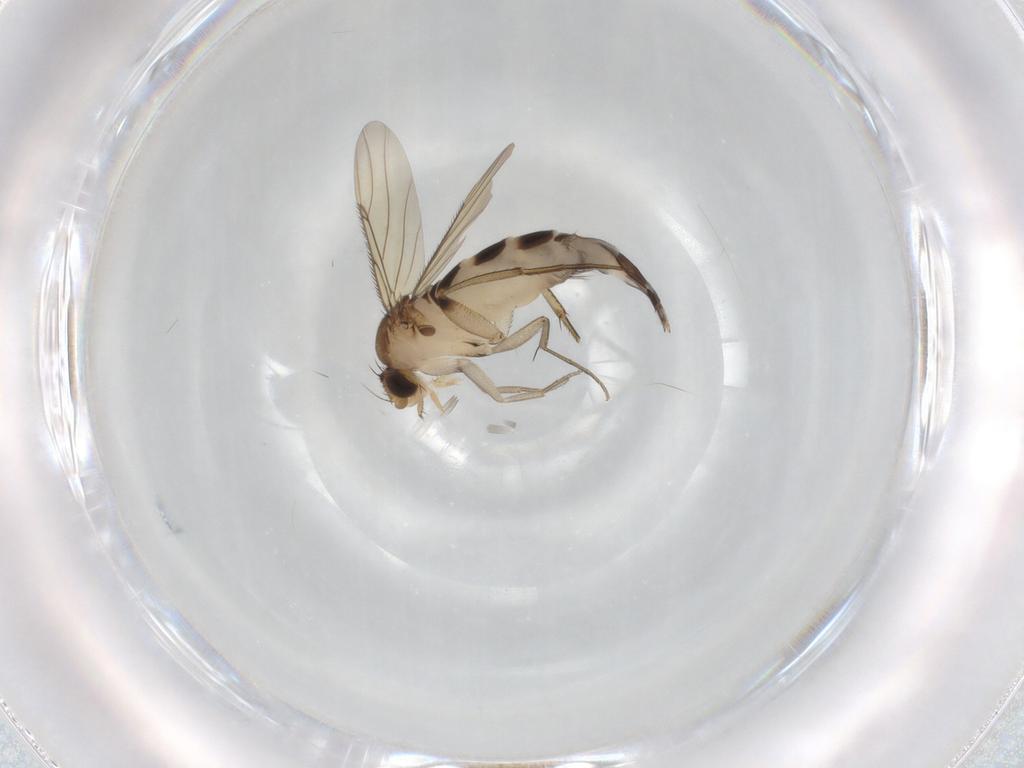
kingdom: Animalia
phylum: Arthropoda
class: Insecta
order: Diptera
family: Phoridae
